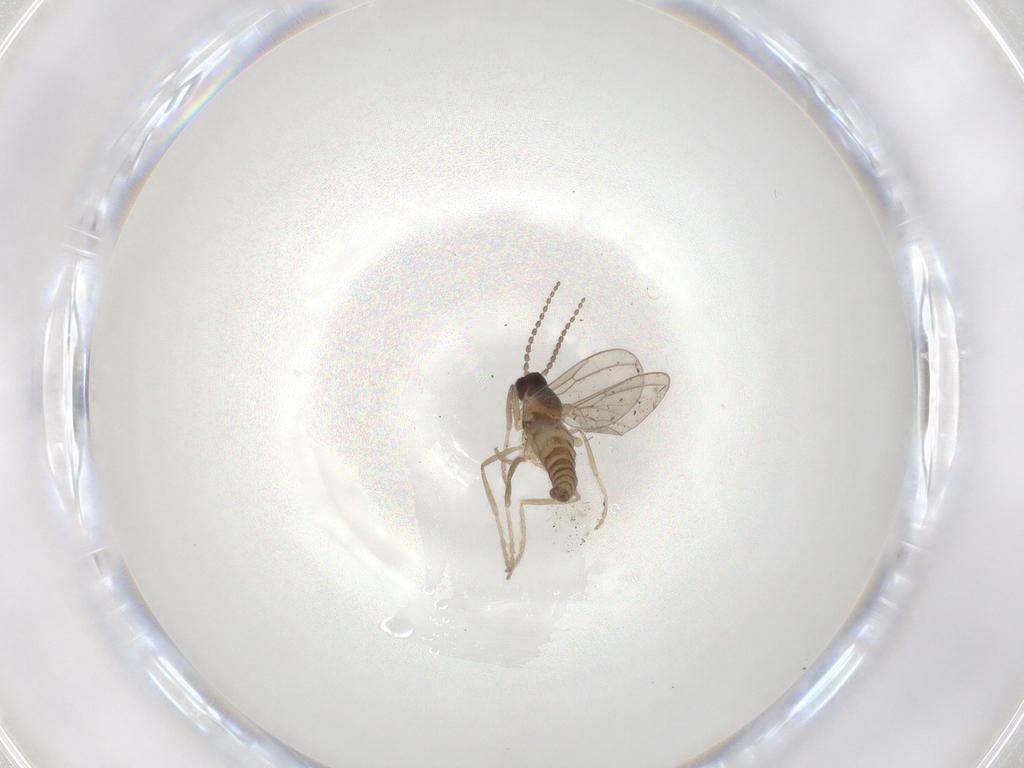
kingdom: Animalia
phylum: Arthropoda
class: Insecta
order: Diptera
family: Cecidomyiidae
